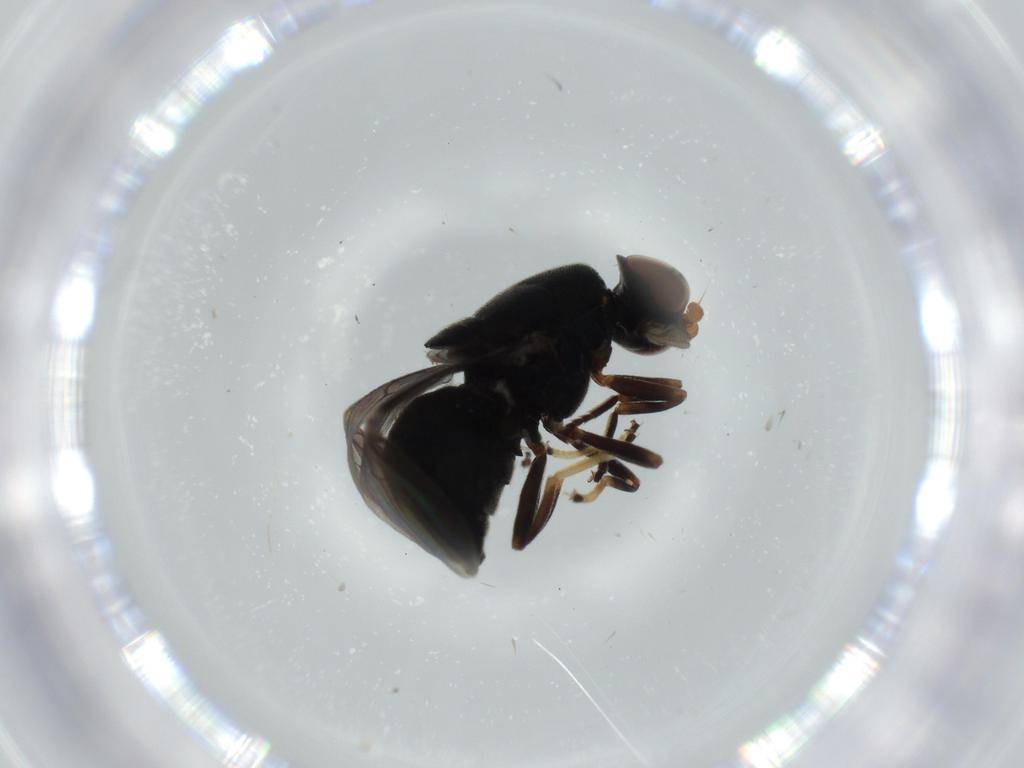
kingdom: Animalia
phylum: Arthropoda
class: Insecta
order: Diptera
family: Stratiomyidae
